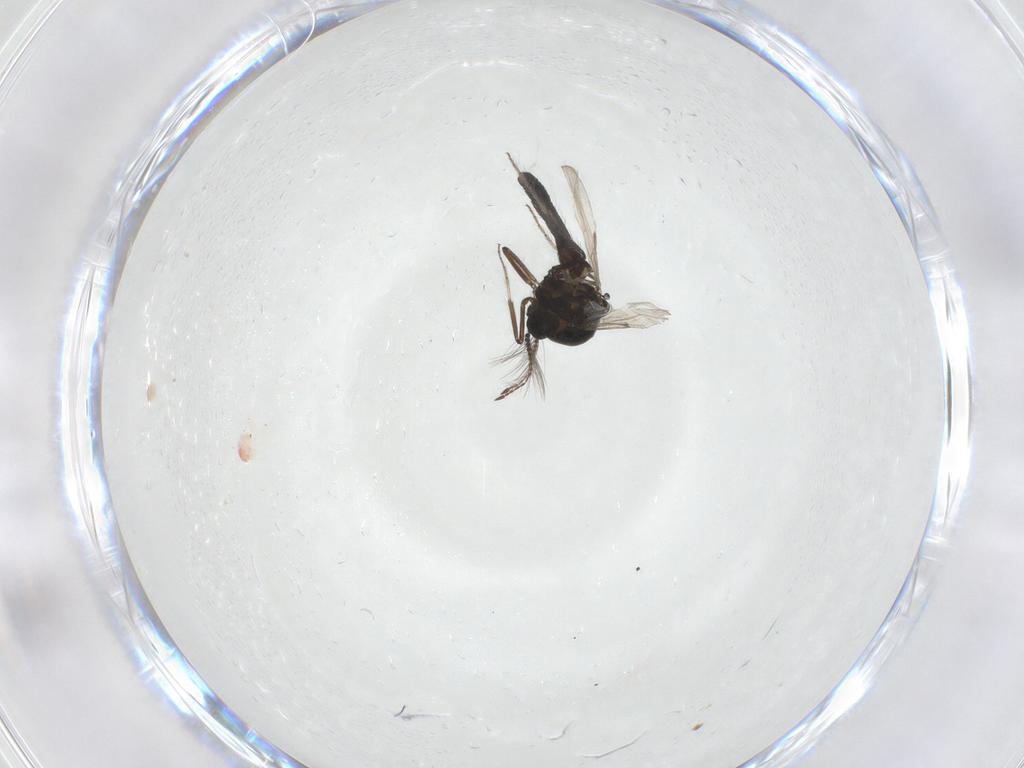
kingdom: Animalia
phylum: Arthropoda
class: Insecta
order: Diptera
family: Ceratopogonidae
